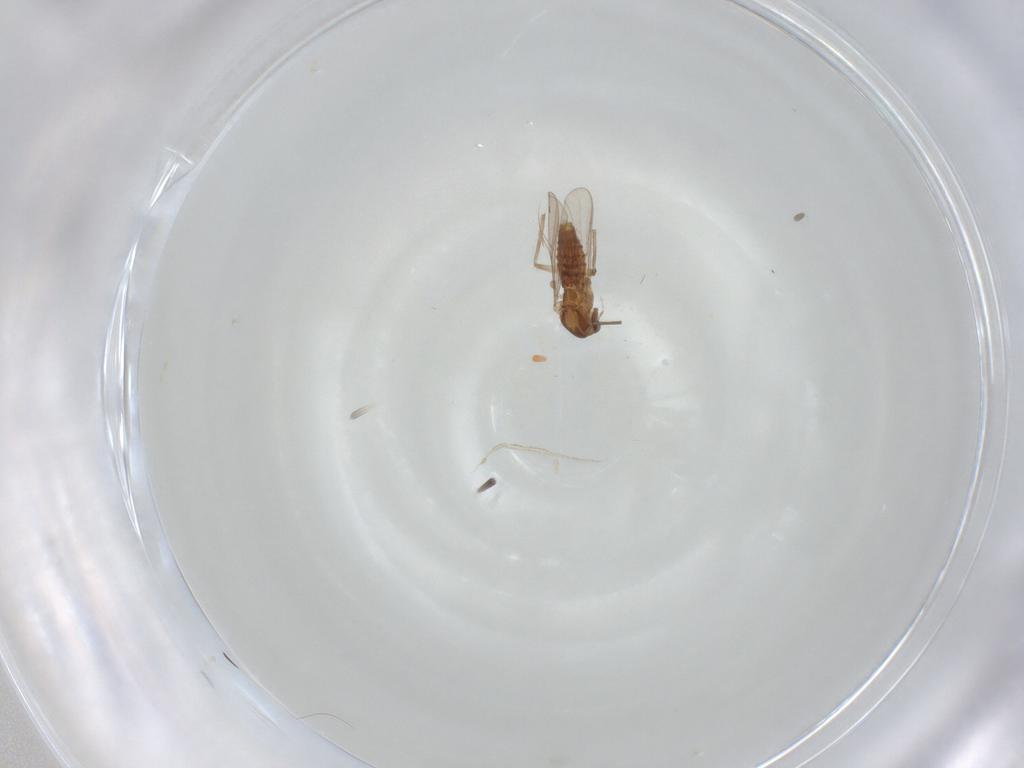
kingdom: Animalia
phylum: Arthropoda
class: Insecta
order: Diptera
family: Chironomidae
